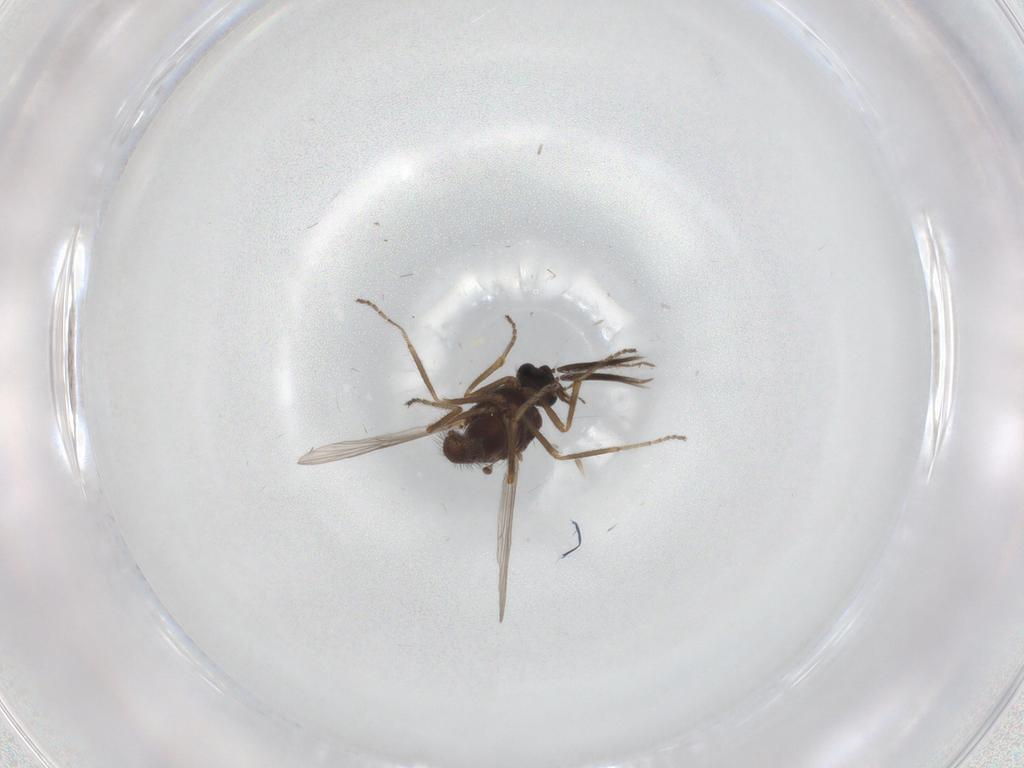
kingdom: Animalia
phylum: Arthropoda
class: Insecta
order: Diptera
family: Ceratopogonidae
